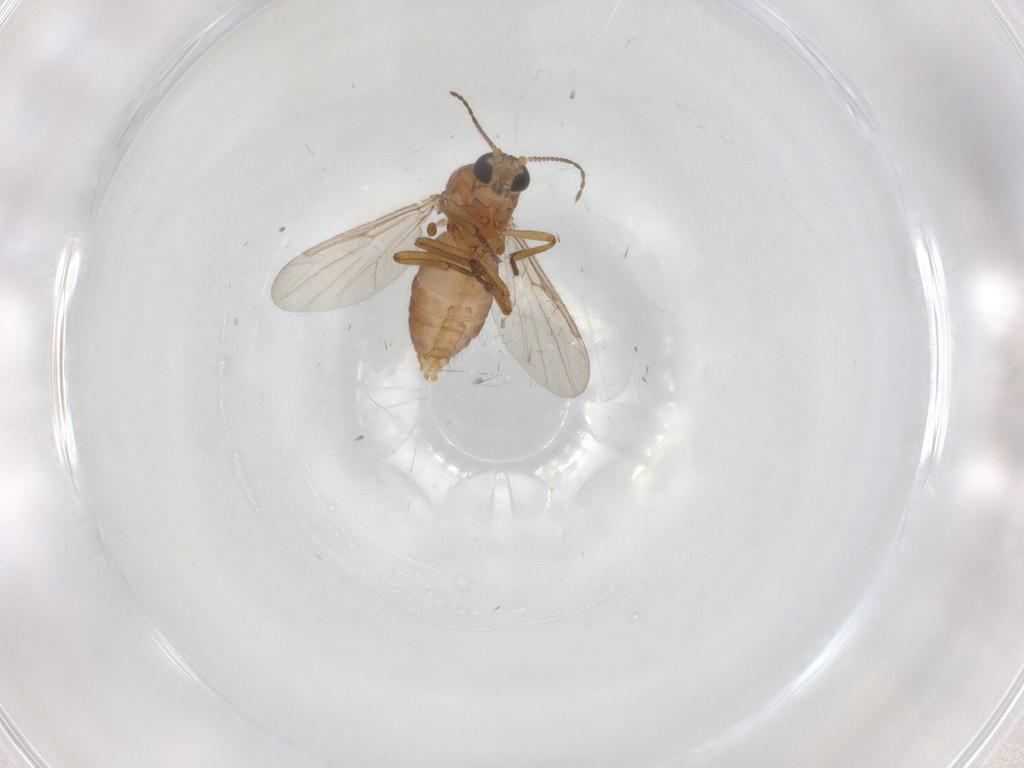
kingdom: Animalia
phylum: Arthropoda
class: Insecta
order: Diptera
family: Ceratopogonidae
